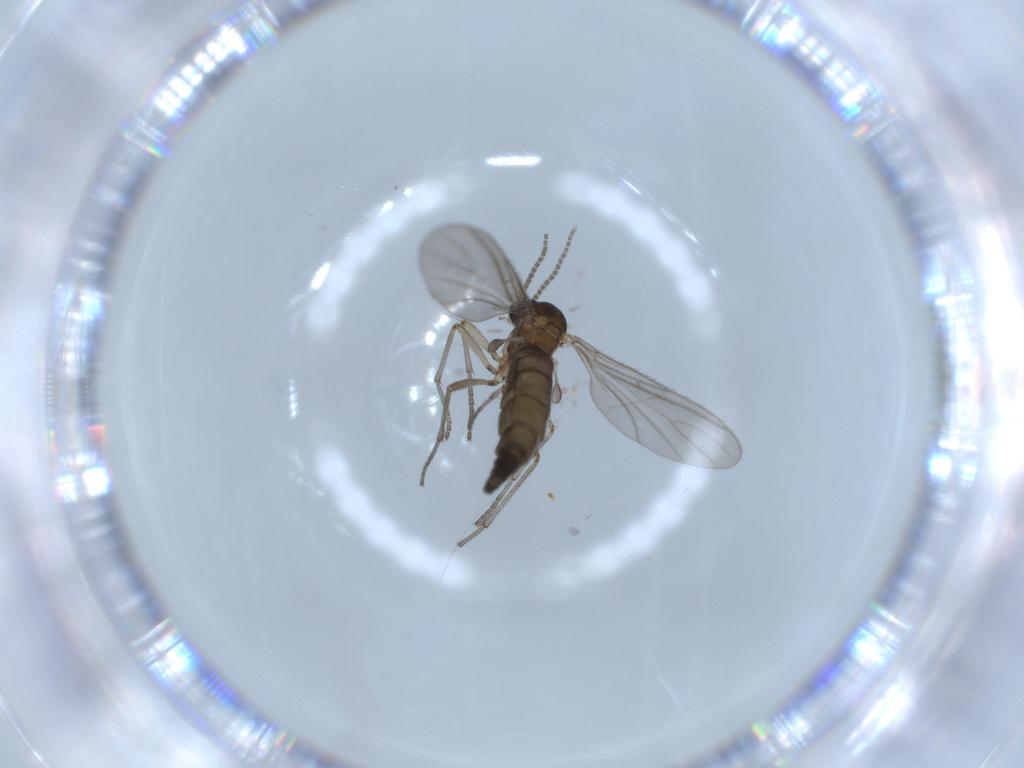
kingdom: Animalia
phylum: Arthropoda
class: Insecta
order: Diptera
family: Sciaridae
